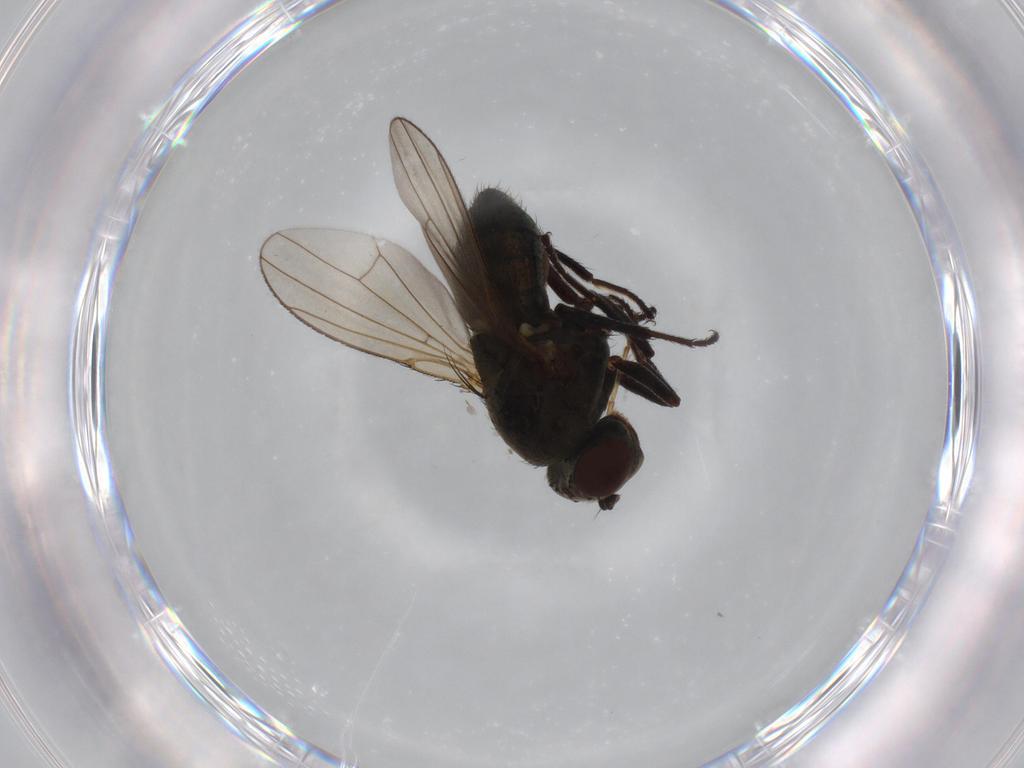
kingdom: Animalia
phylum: Arthropoda
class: Insecta
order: Diptera
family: Ephydridae
